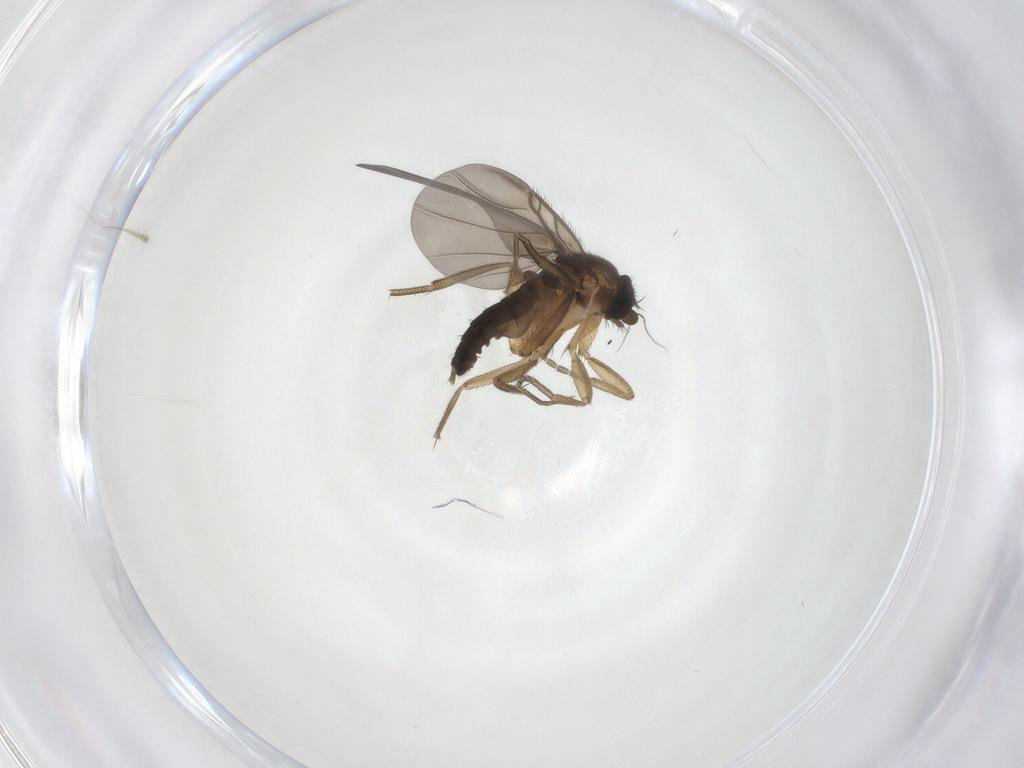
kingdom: Animalia
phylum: Arthropoda
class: Insecta
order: Diptera
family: Phoridae
